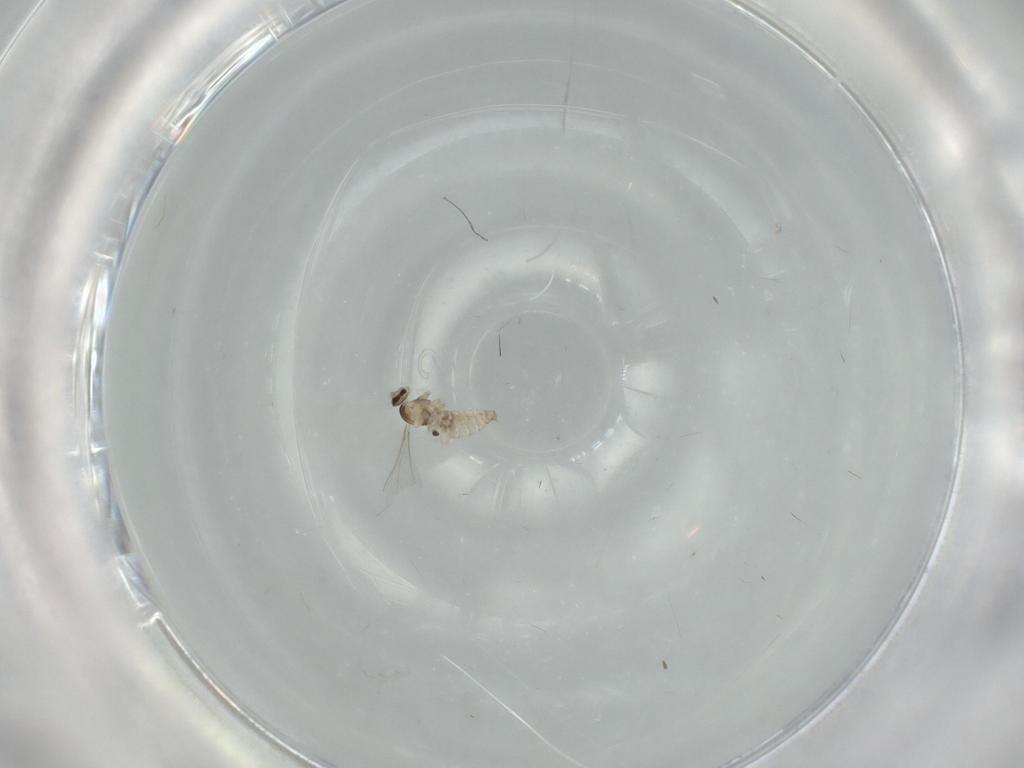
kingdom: Animalia
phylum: Arthropoda
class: Insecta
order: Diptera
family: Cecidomyiidae
